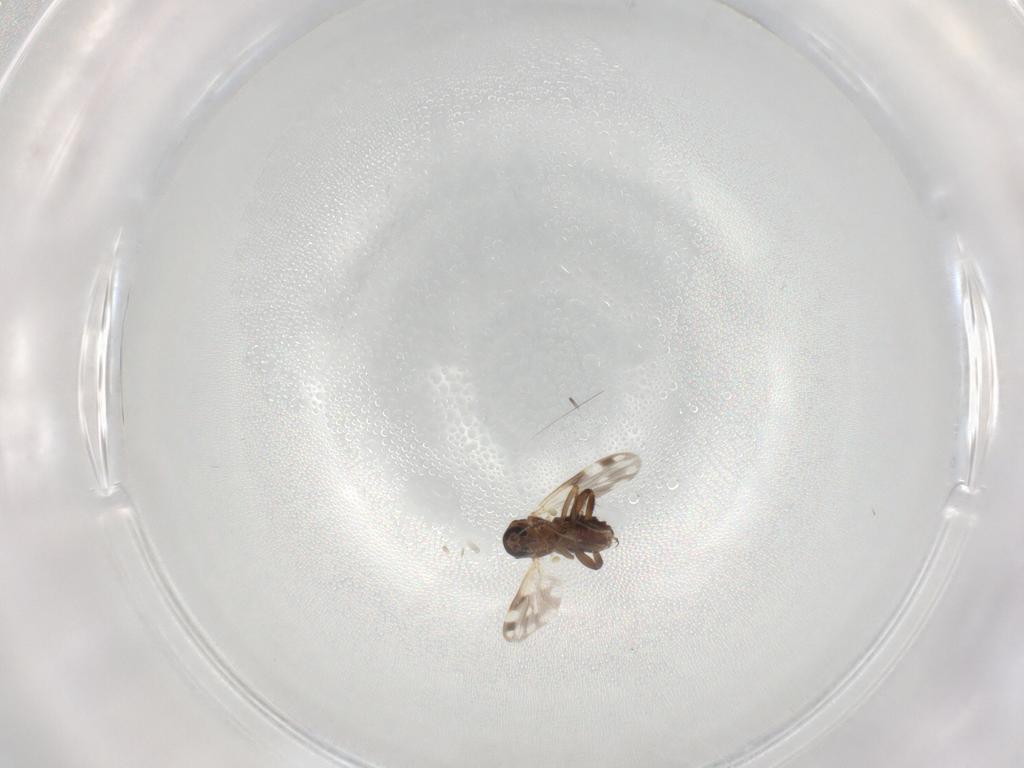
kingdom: Animalia
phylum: Arthropoda
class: Insecta
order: Diptera
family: Ceratopogonidae
